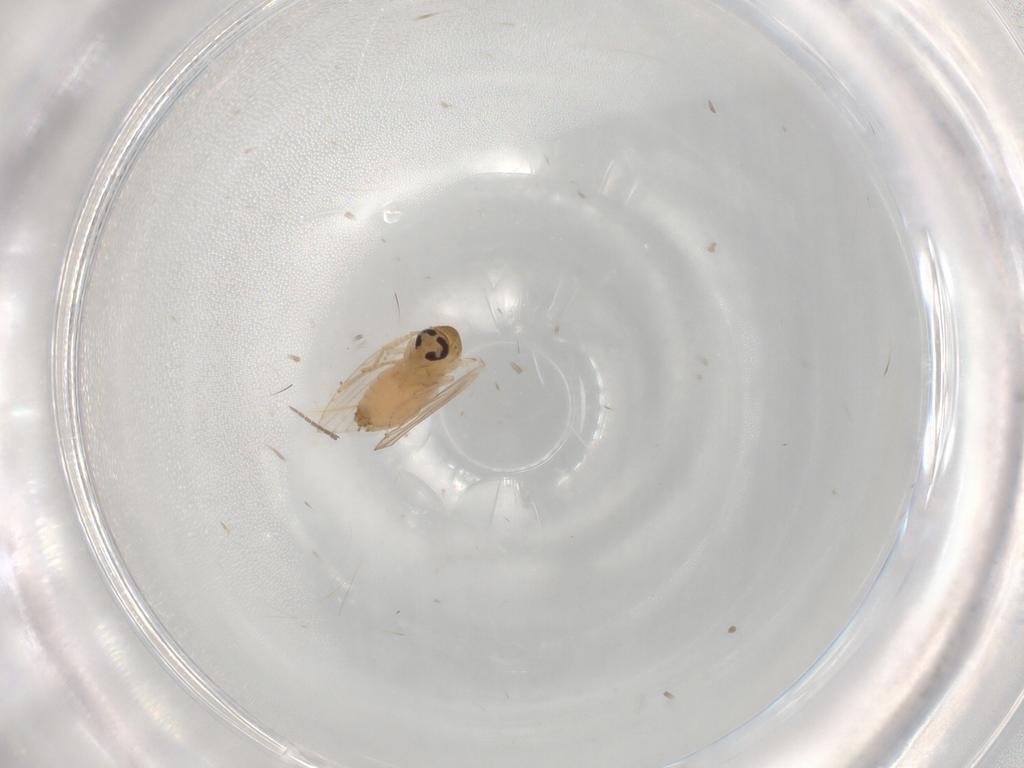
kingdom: Animalia
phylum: Arthropoda
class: Insecta
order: Diptera
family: Psychodidae
